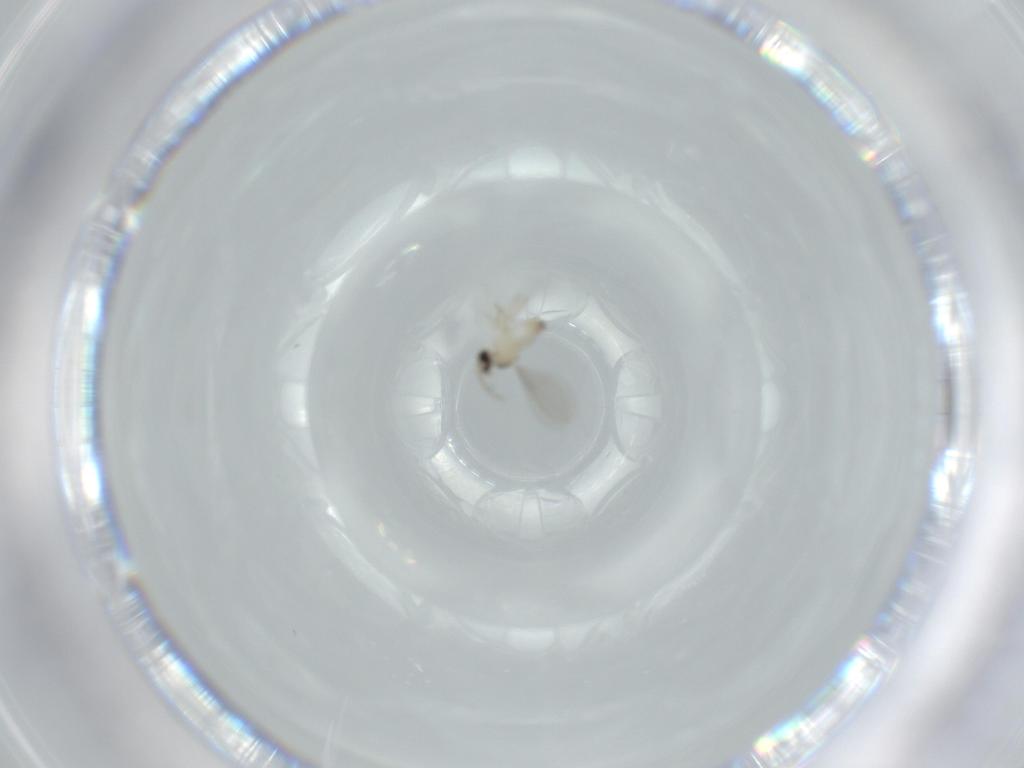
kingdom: Animalia
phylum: Arthropoda
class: Insecta
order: Diptera
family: Cecidomyiidae
